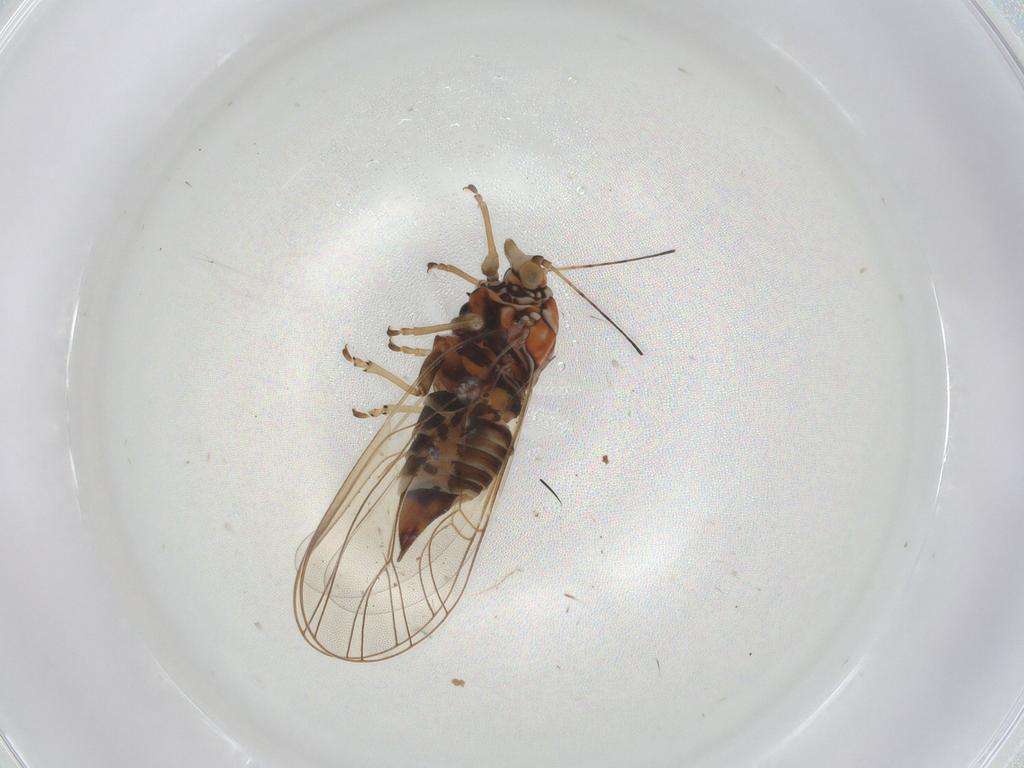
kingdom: Animalia
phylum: Arthropoda
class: Insecta
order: Hemiptera
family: Psyllidae
